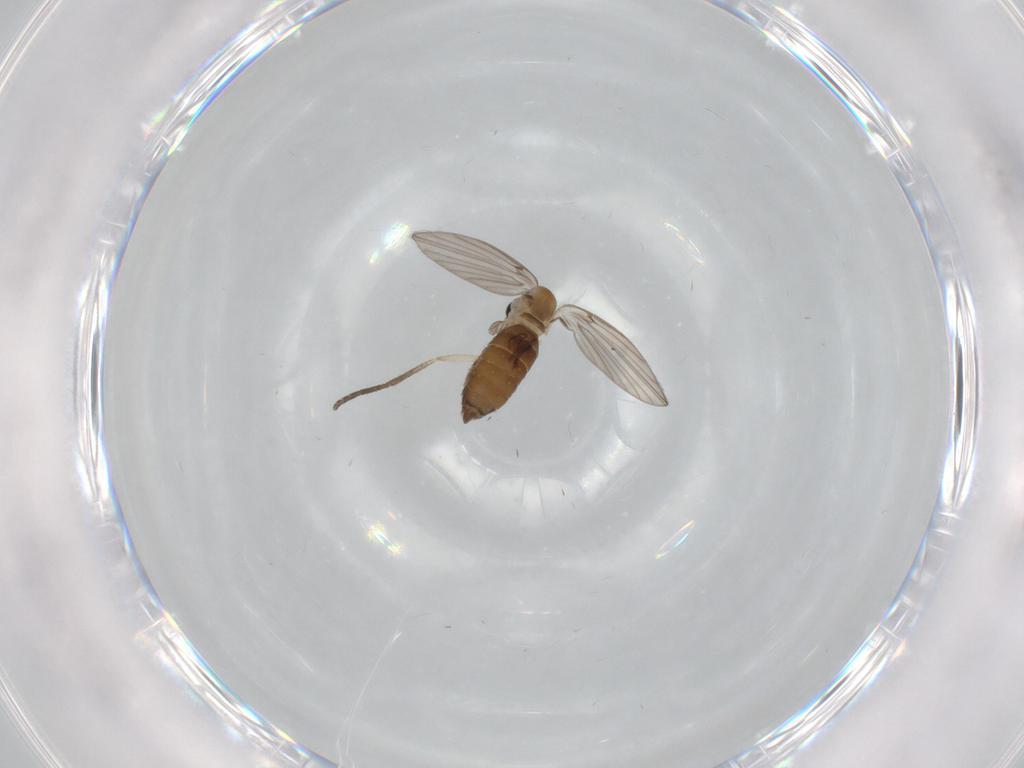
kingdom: Animalia
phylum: Arthropoda
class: Insecta
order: Diptera
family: Psychodidae
